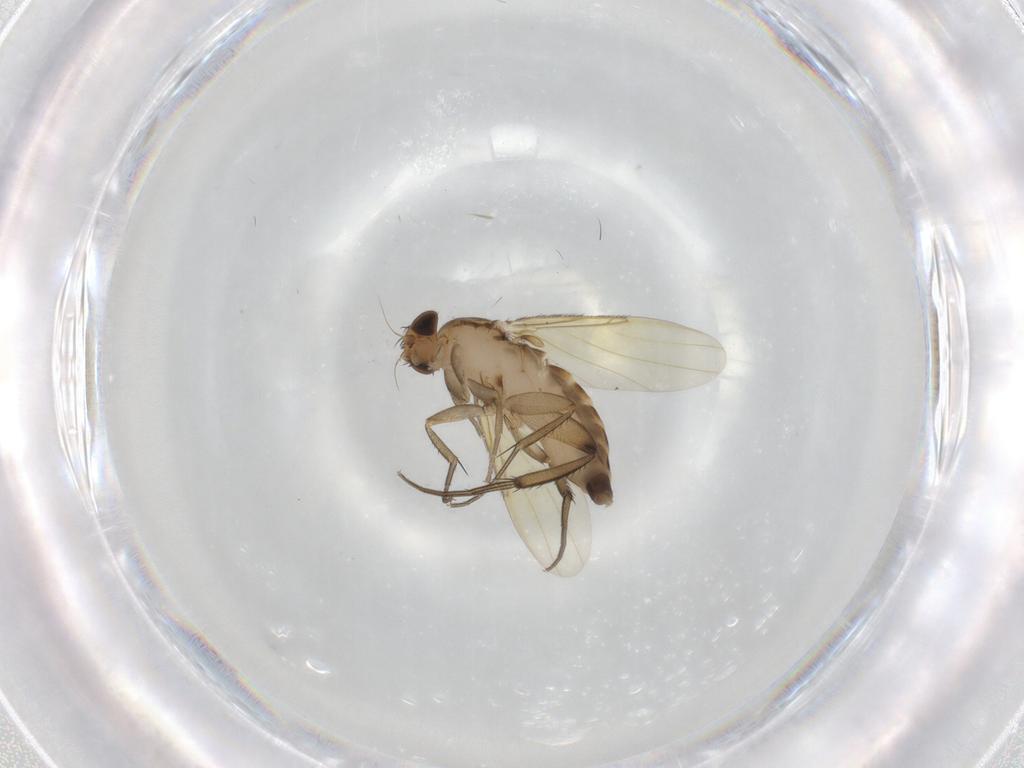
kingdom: Animalia
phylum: Arthropoda
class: Insecta
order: Diptera
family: Phoridae
